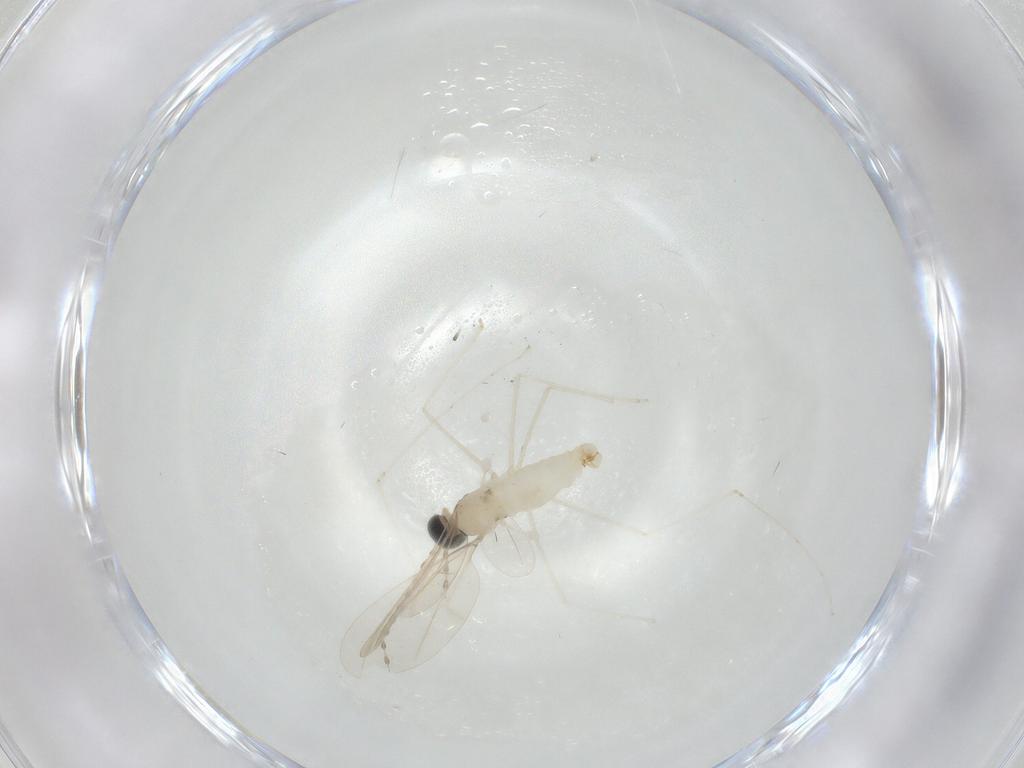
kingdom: Animalia
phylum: Arthropoda
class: Insecta
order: Diptera
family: Cecidomyiidae
